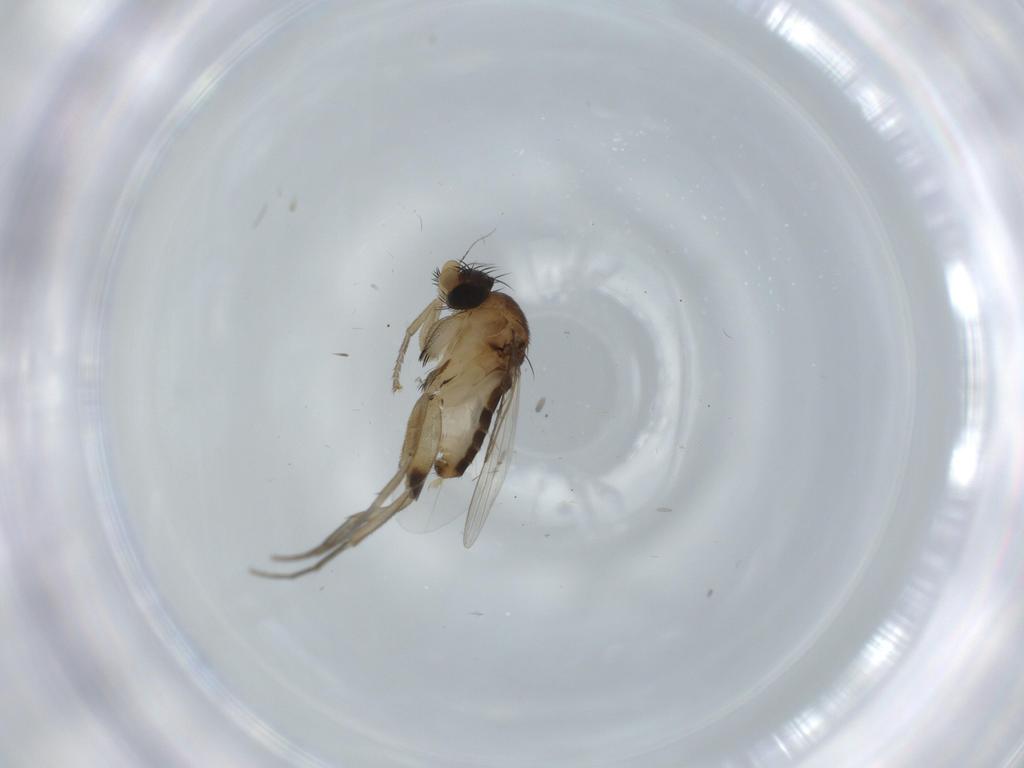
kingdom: Animalia
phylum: Arthropoda
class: Insecta
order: Diptera
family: Phoridae
